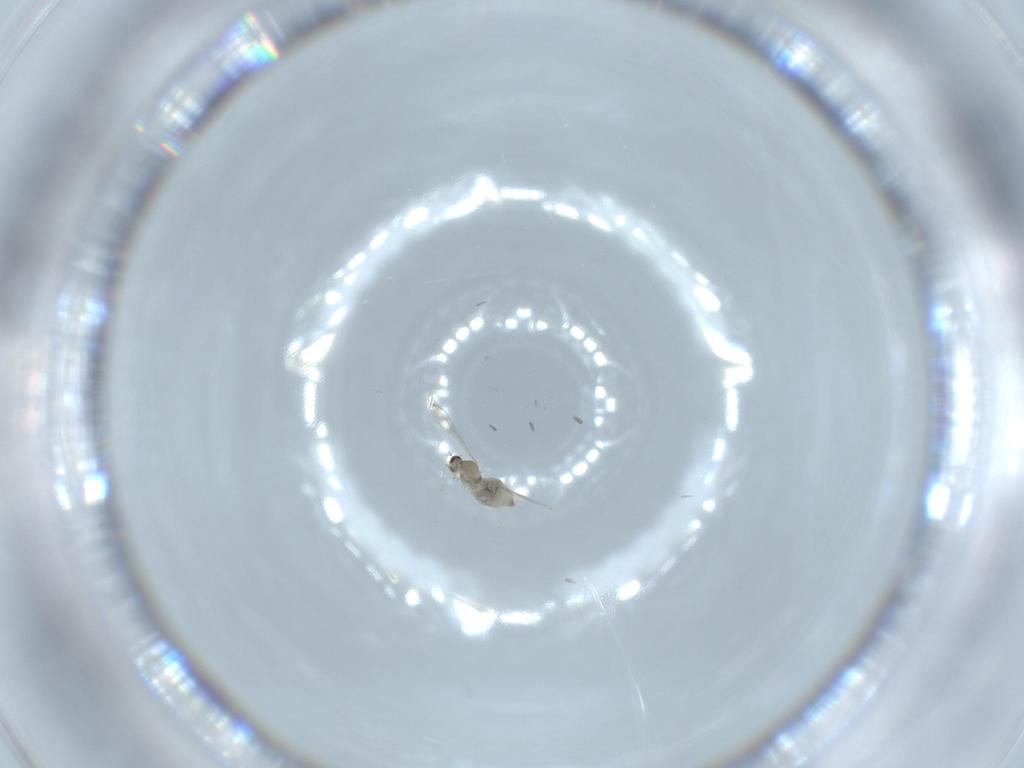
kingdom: Animalia
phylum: Arthropoda
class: Insecta
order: Diptera
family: Cecidomyiidae
